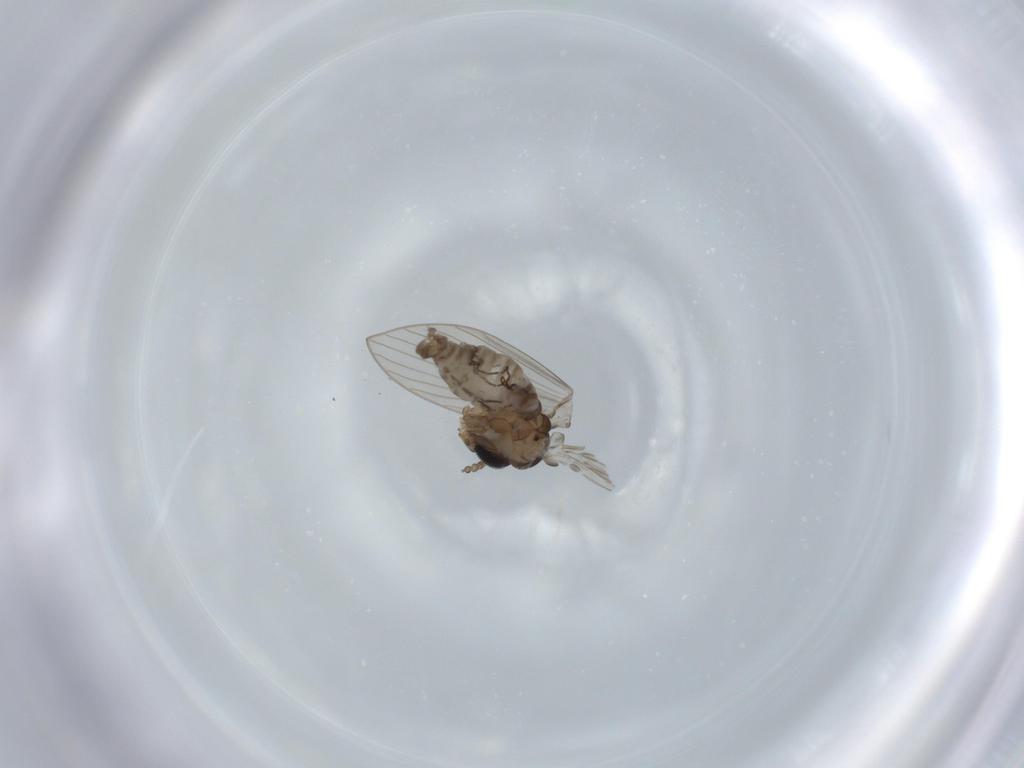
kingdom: Animalia
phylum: Arthropoda
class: Insecta
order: Diptera
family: Psychodidae
